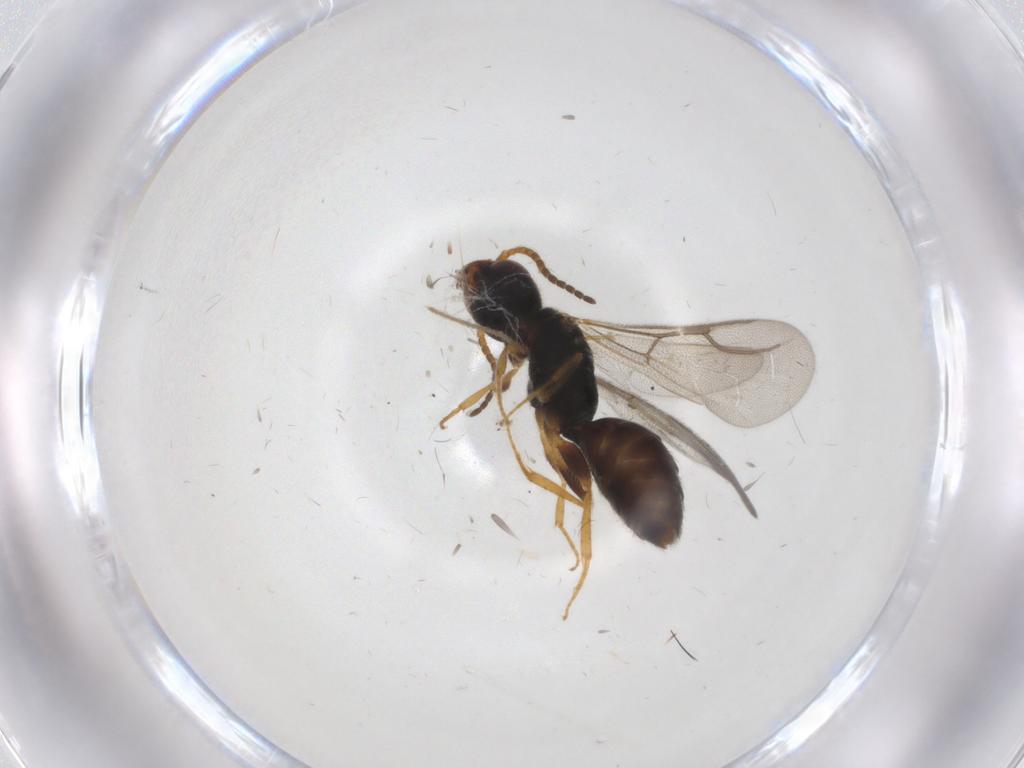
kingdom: Animalia
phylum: Arthropoda
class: Insecta
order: Hymenoptera
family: Bethylidae
